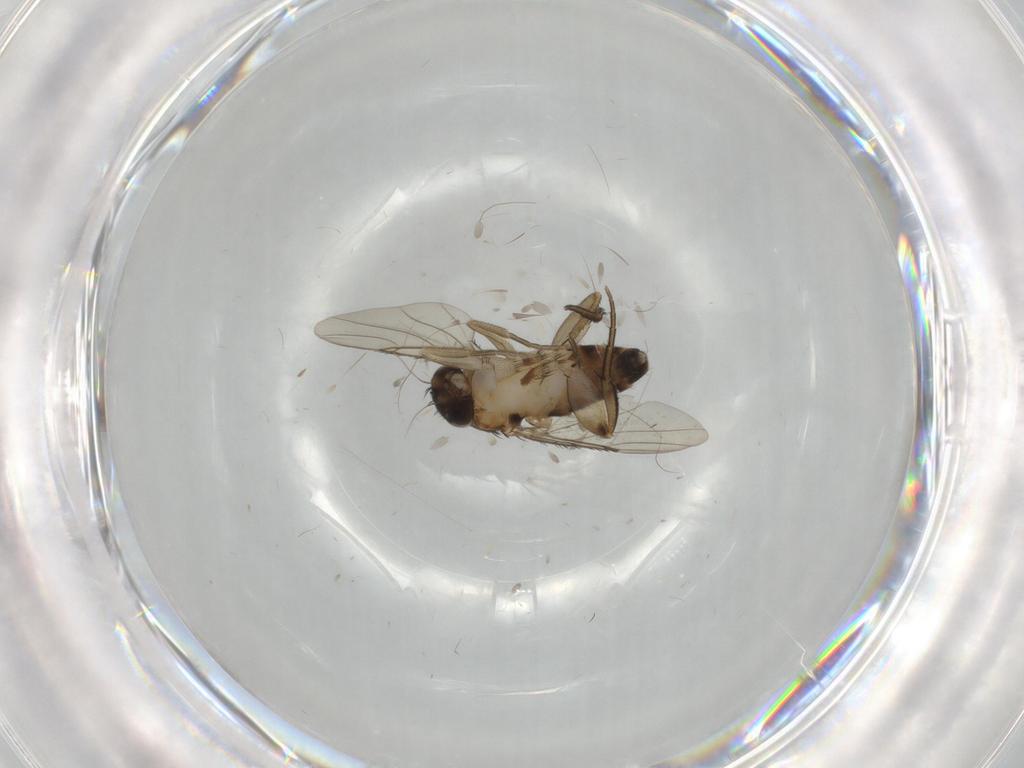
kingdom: Animalia
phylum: Arthropoda
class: Insecta
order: Diptera
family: Phoridae
